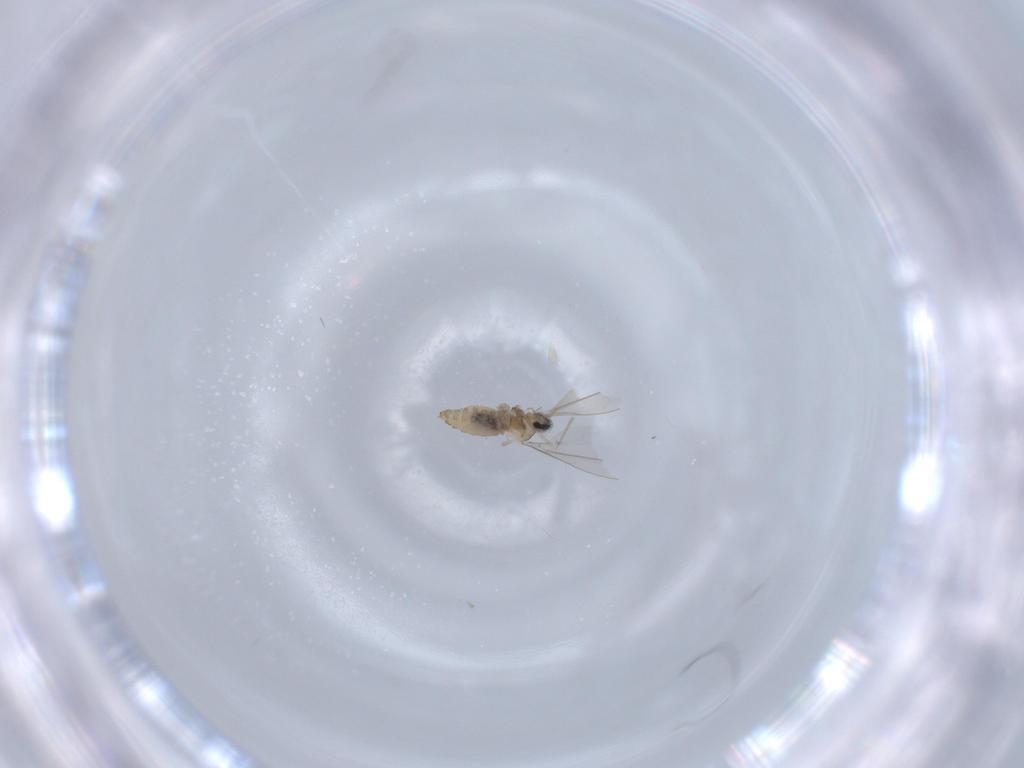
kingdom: Animalia
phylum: Arthropoda
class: Insecta
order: Diptera
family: Cecidomyiidae
